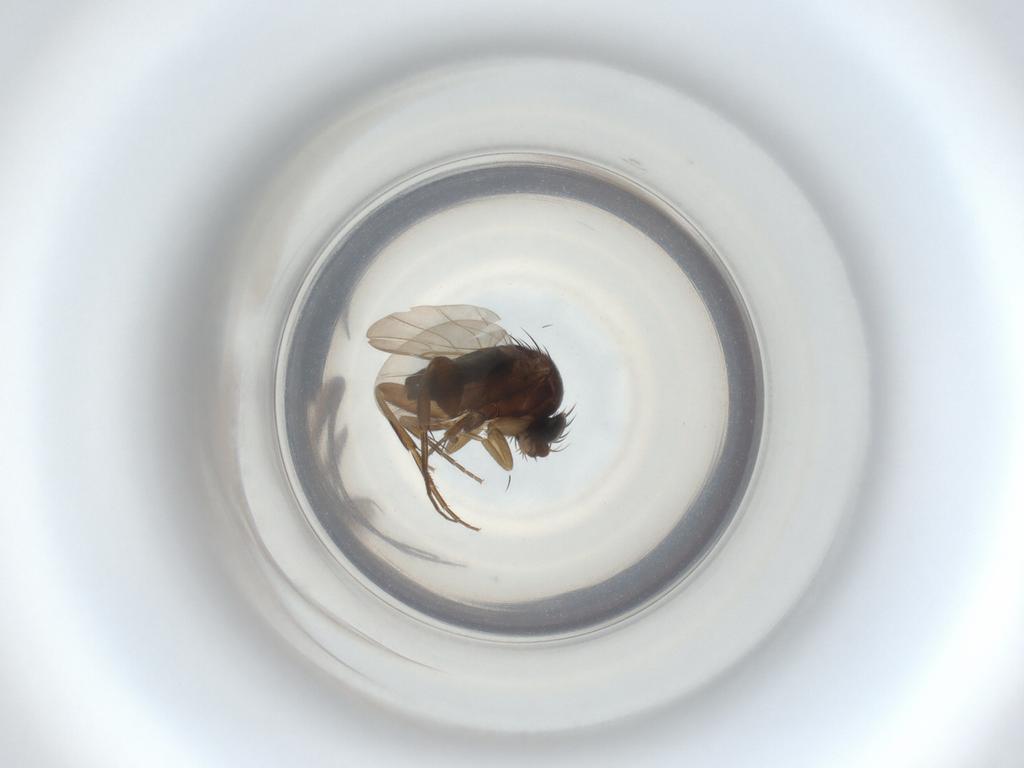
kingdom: Animalia
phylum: Arthropoda
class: Insecta
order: Diptera
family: Phoridae
